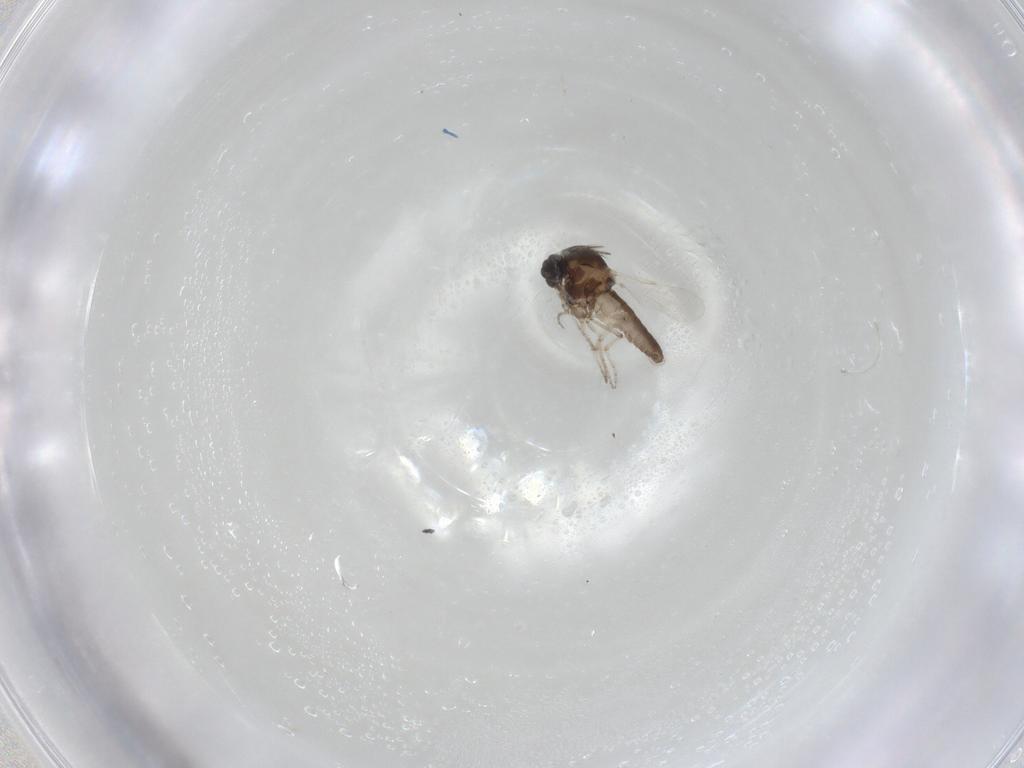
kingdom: Animalia
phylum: Arthropoda
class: Insecta
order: Diptera
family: Ceratopogonidae
